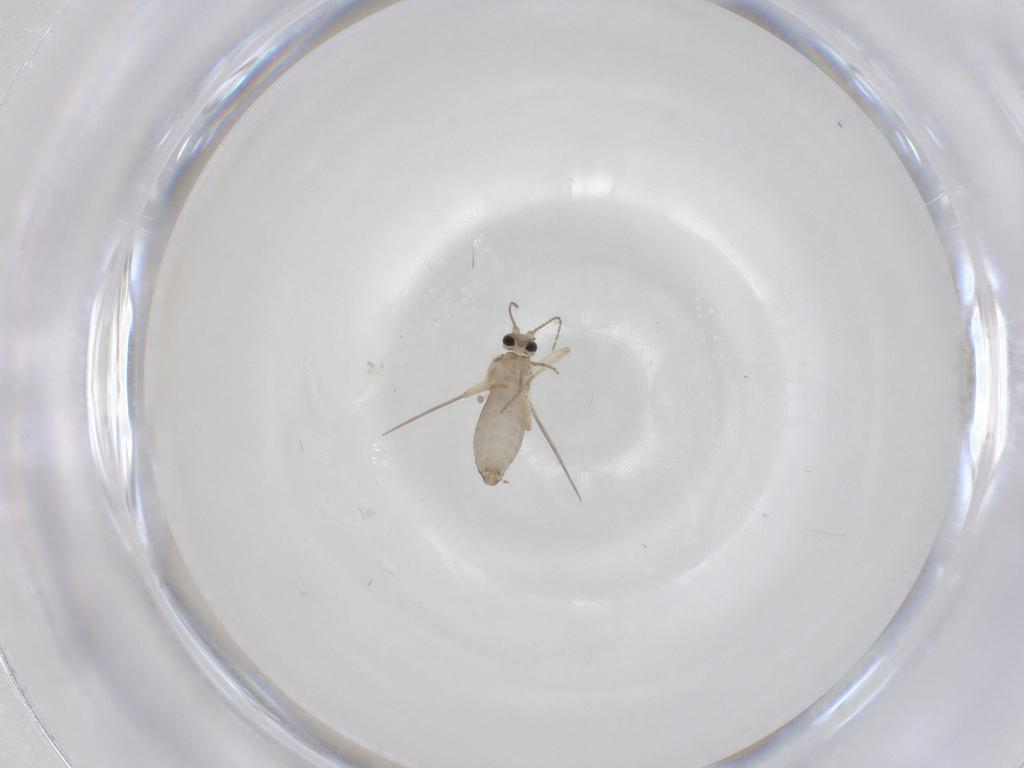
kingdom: Animalia
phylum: Arthropoda
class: Insecta
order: Diptera
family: Ceratopogonidae
